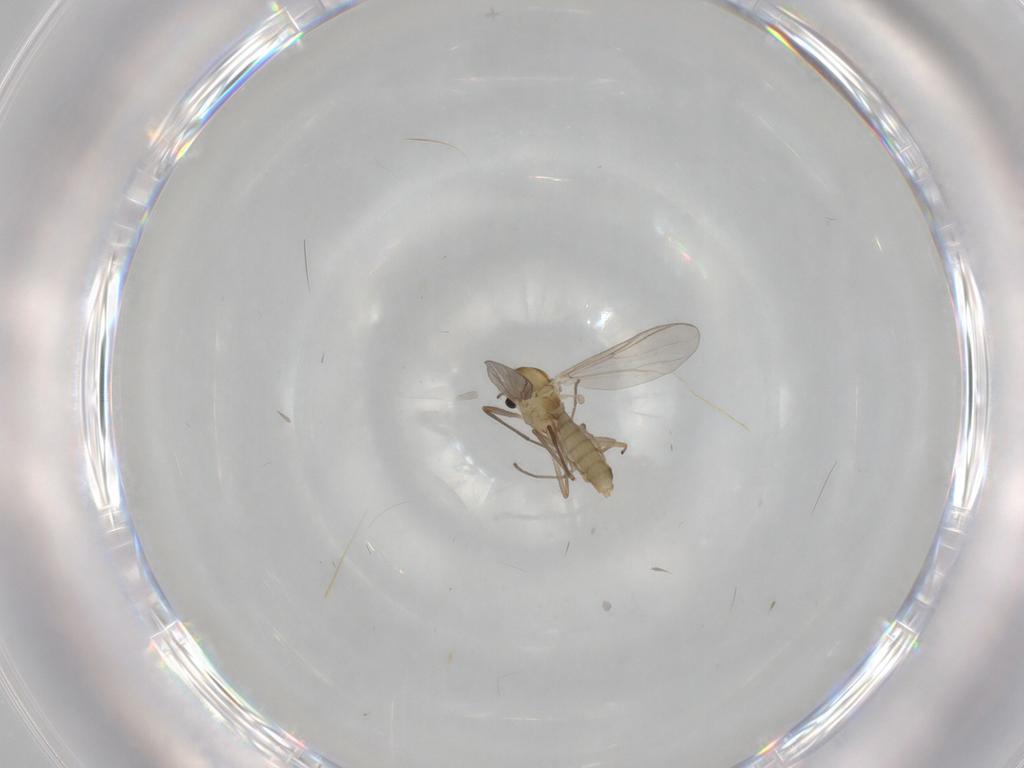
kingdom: Animalia
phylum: Arthropoda
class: Insecta
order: Diptera
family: Chironomidae
